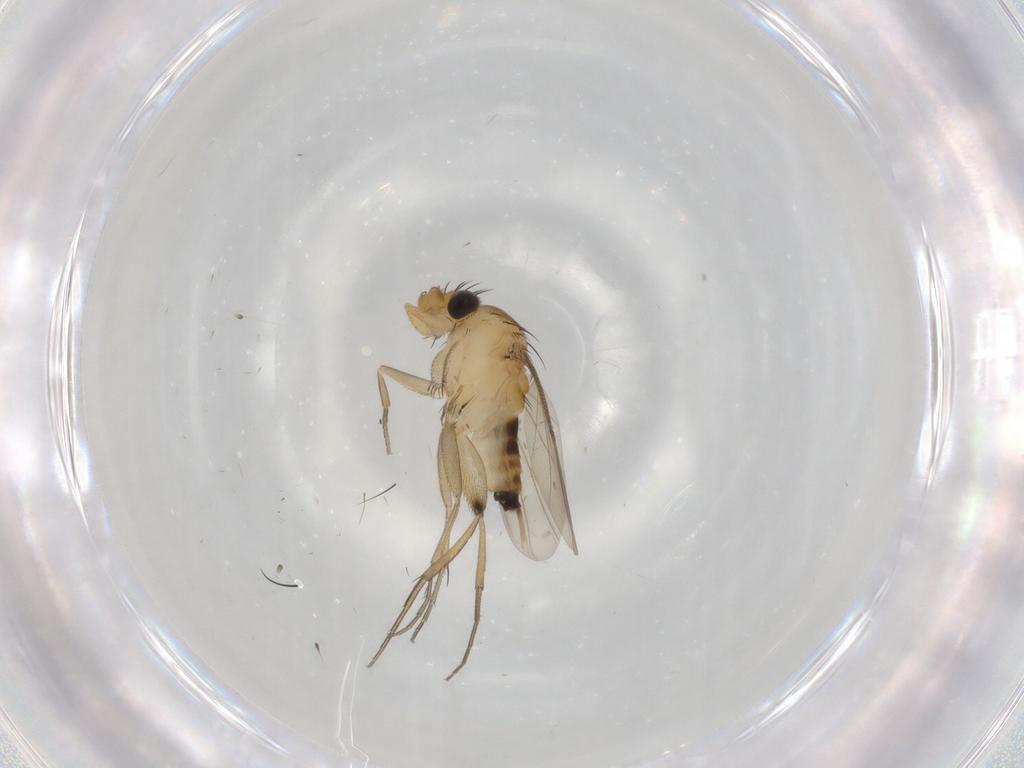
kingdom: Animalia
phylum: Arthropoda
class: Insecta
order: Diptera
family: Phoridae
